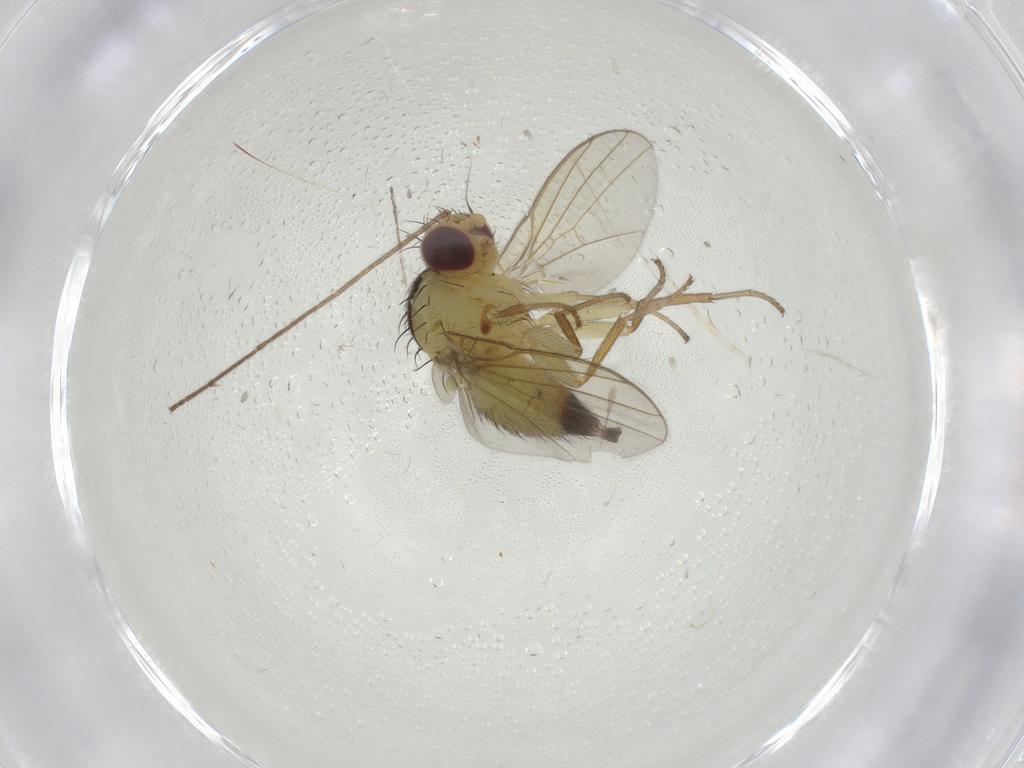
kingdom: Animalia
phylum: Arthropoda
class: Insecta
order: Diptera
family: Agromyzidae
